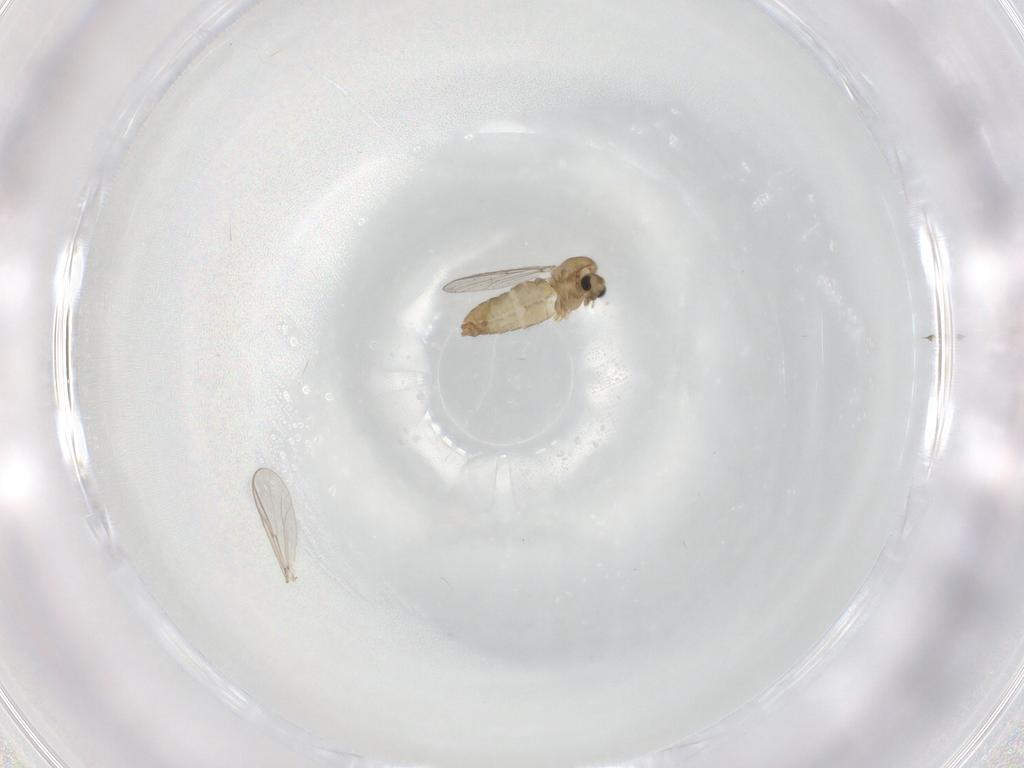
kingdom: Animalia
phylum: Arthropoda
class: Insecta
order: Diptera
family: Chironomidae
